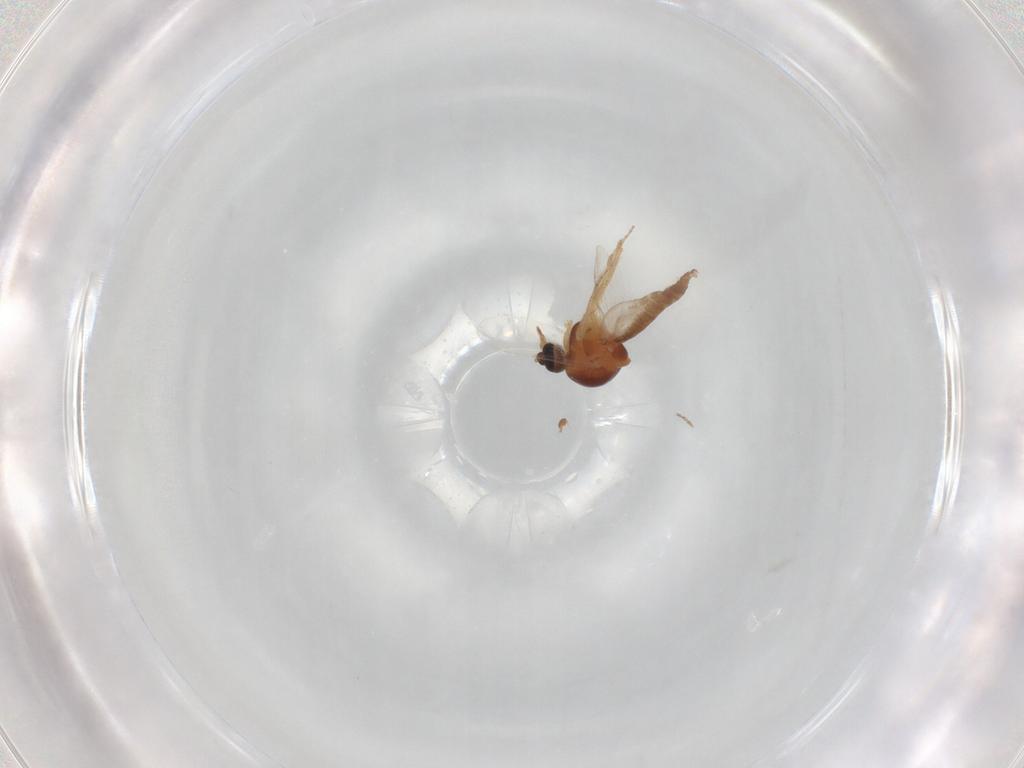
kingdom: Animalia
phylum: Arthropoda
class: Insecta
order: Diptera
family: Ceratopogonidae
